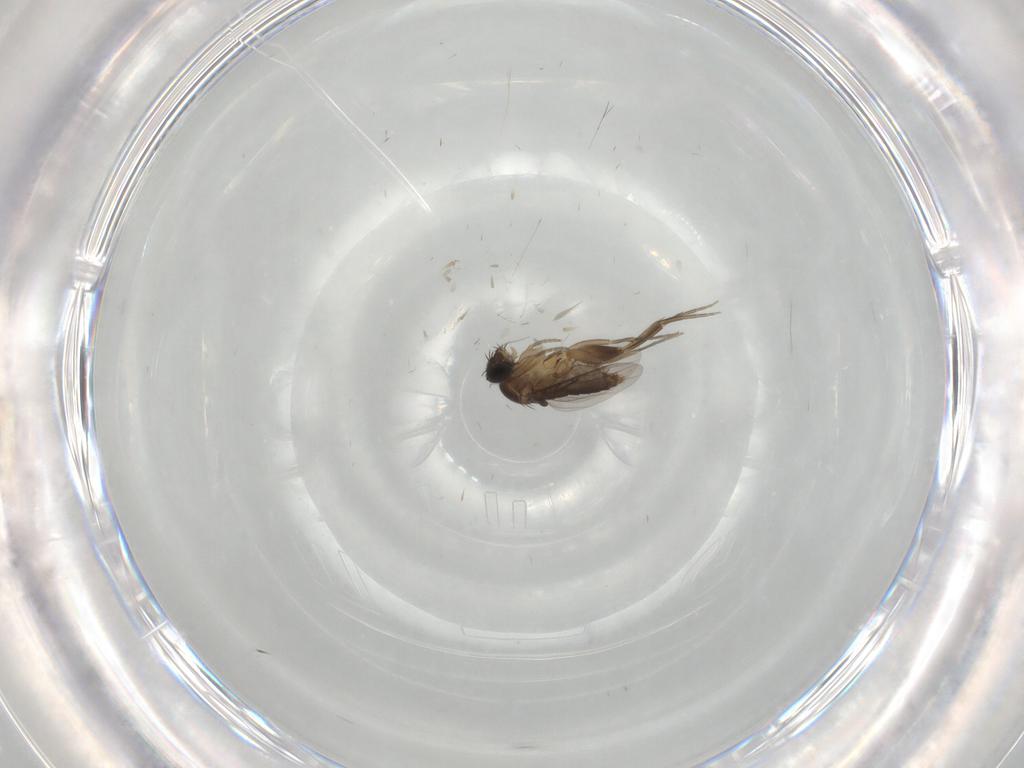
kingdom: Animalia
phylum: Arthropoda
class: Insecta
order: Diptera
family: Phoridae
